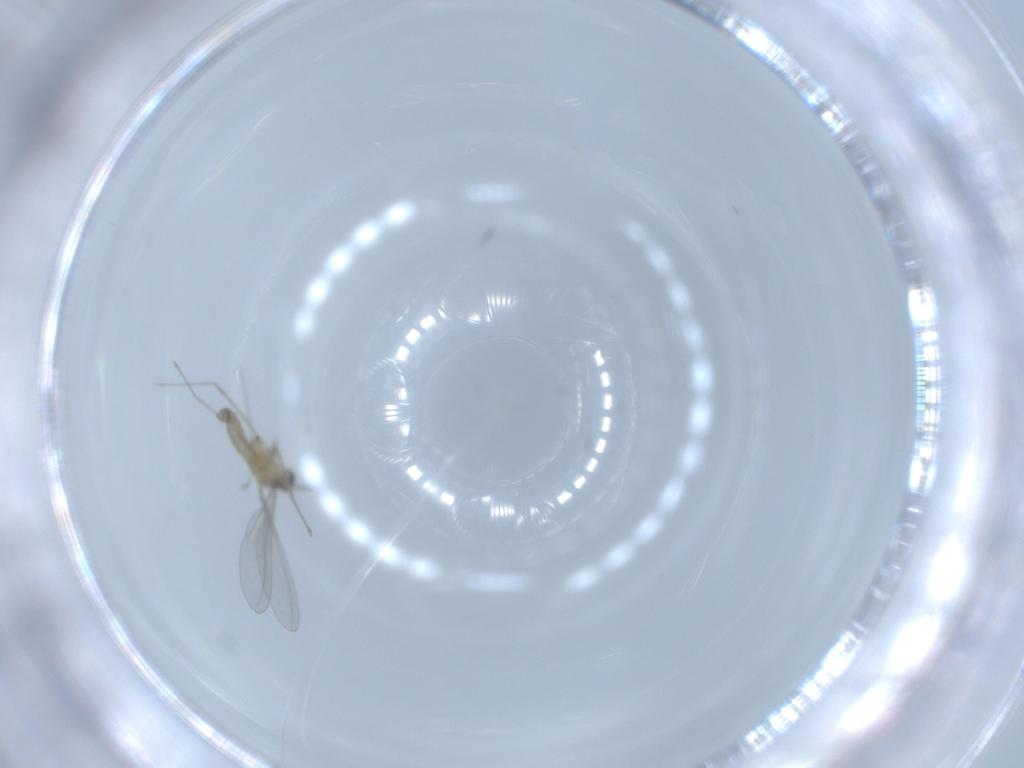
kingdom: Animalia
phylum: Arthropoda
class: Insecta
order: Diptera
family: Cecidomyiidae
